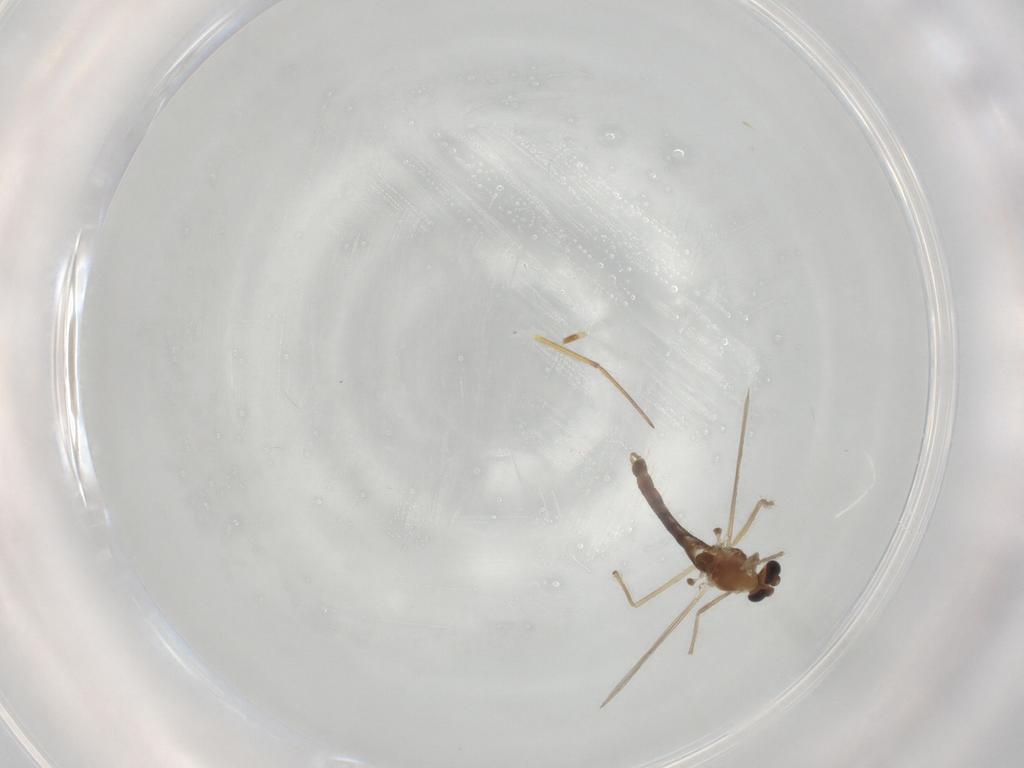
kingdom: Animalia
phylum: Arthropoda
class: Insecta
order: Diptera
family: Chironomidae
